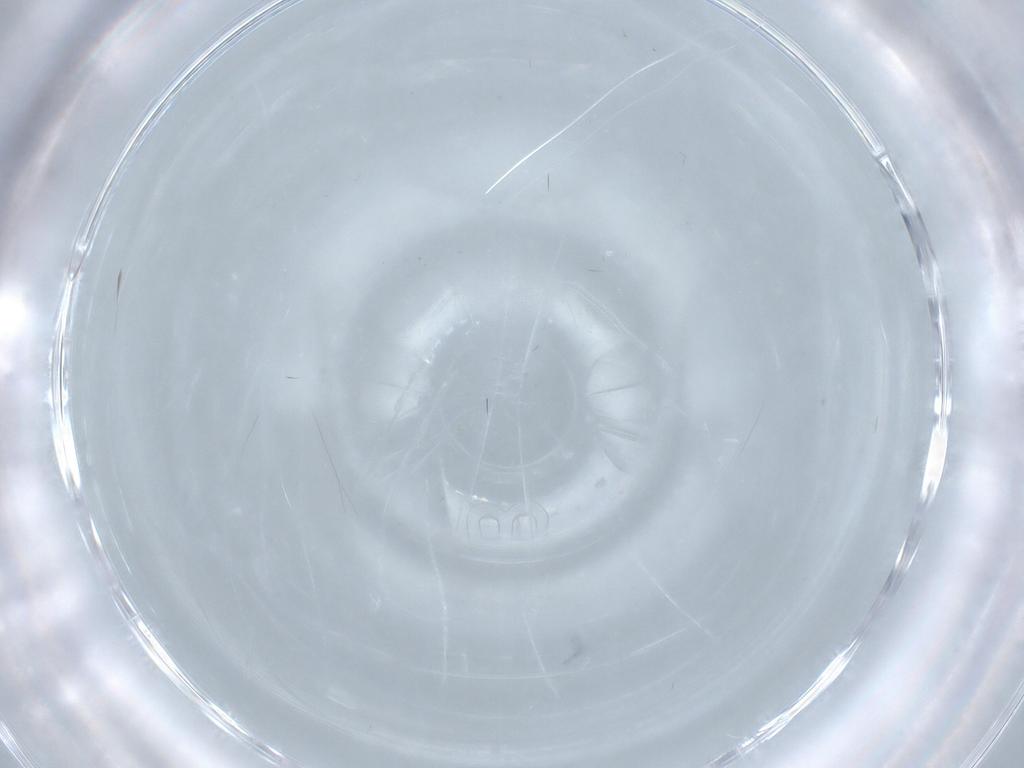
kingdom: Animalia
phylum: Arthropoda
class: Insecta
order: Diptera
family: Chironomidae
